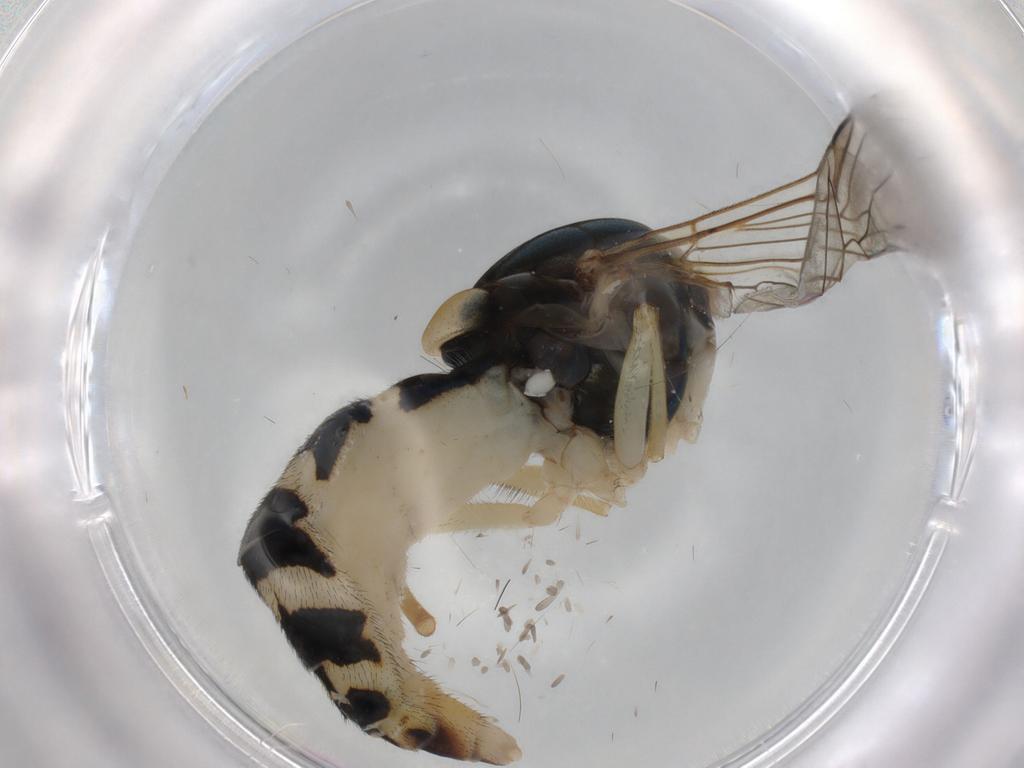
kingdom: Animalia
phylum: Arthropoda
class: Insecta
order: Diptera
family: Syrphidae
